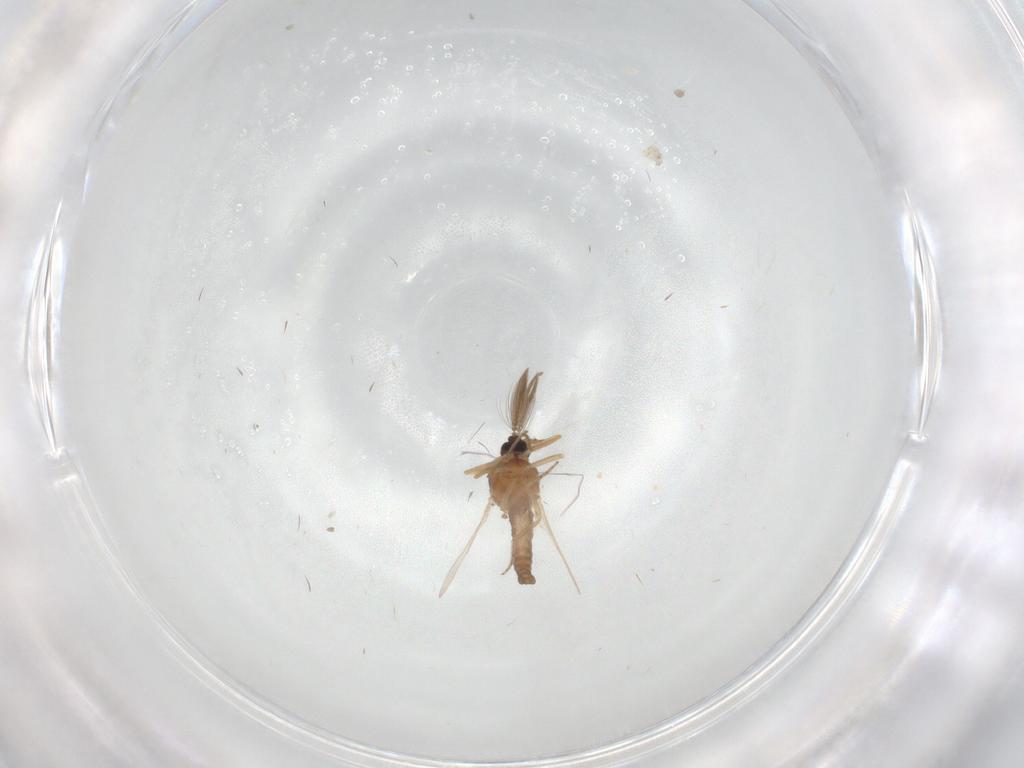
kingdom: Animalia
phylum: Arthropoda
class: Insecta
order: Diptera
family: Ceratopogonidae
